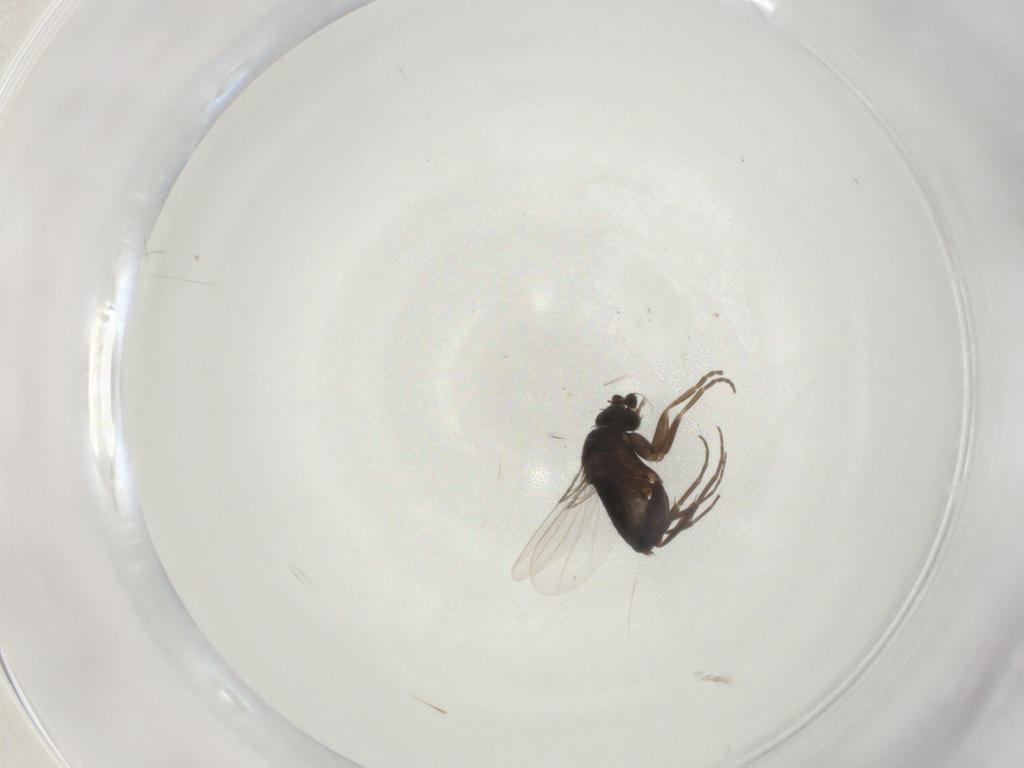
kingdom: Animalia
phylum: Arthropoda
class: Insecta
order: Diptera
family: Phoridae
